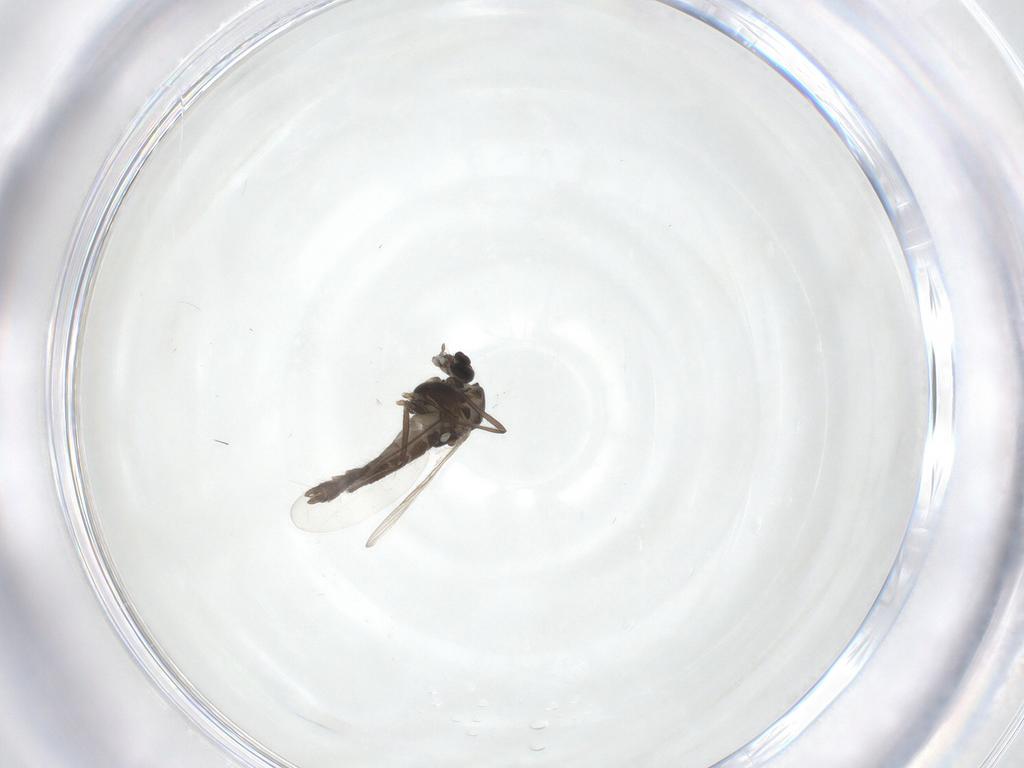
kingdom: Animalia
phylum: Arthropoda
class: Insecta
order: Diptera
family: Chironomidae
